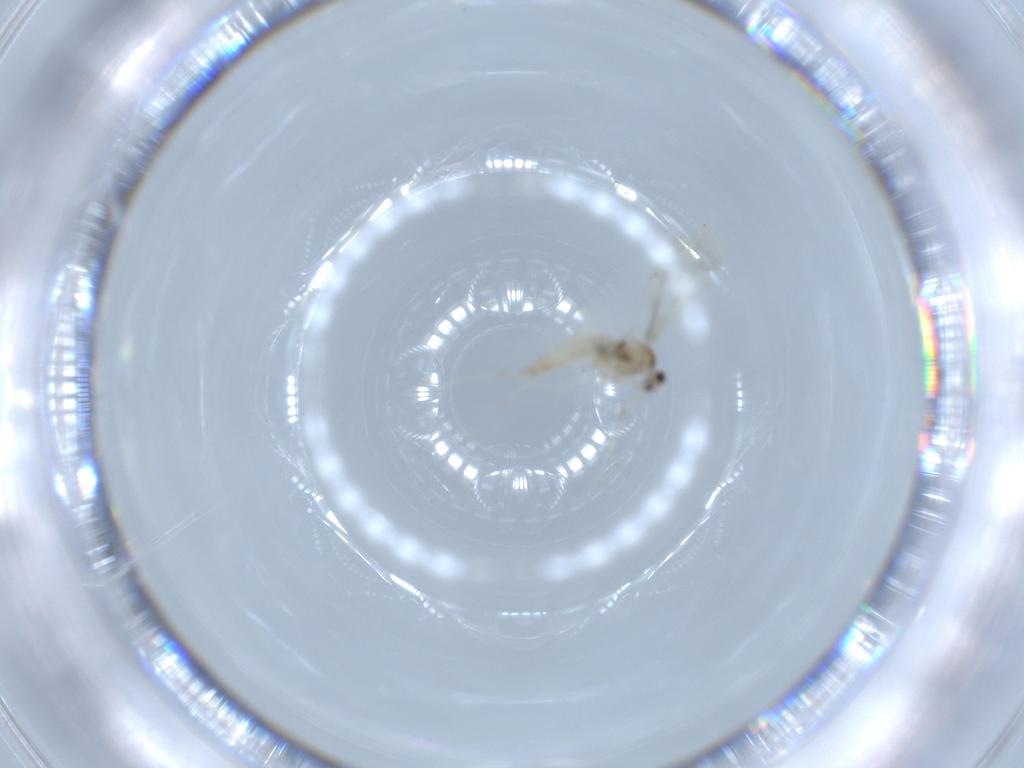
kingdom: Animalia
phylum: Arthropoda
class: Insecta
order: Diptera
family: Cecidomyiidae
